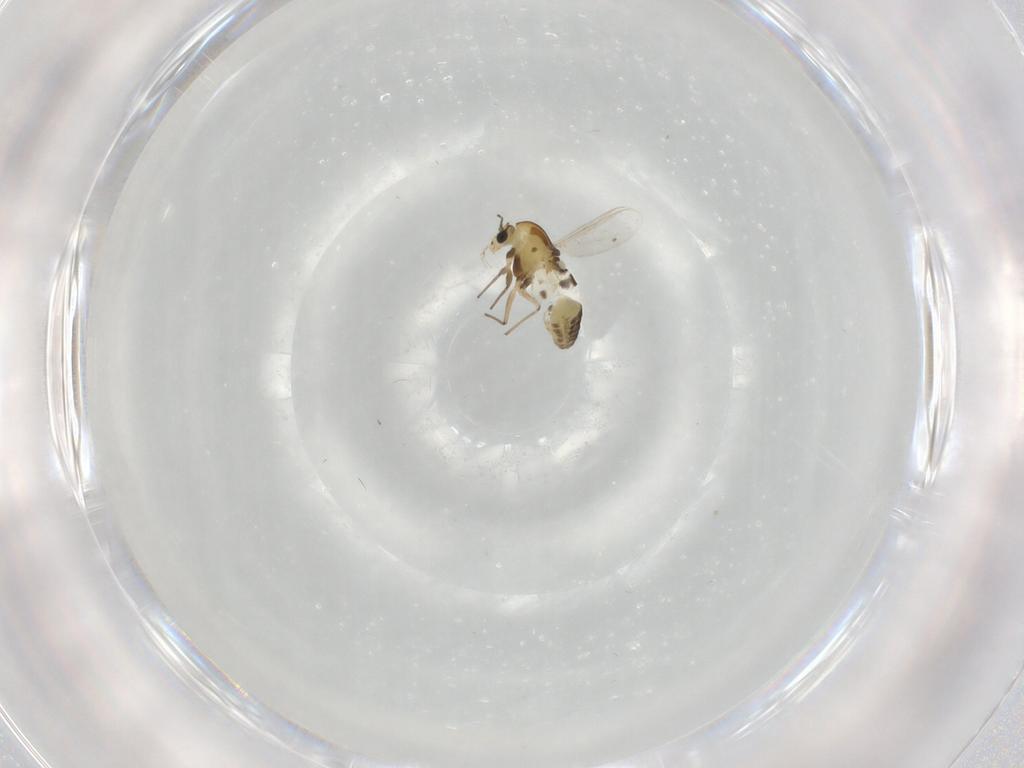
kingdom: Animalia
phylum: Arthropoda
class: Insecta
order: Diptera
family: Chironomidae
